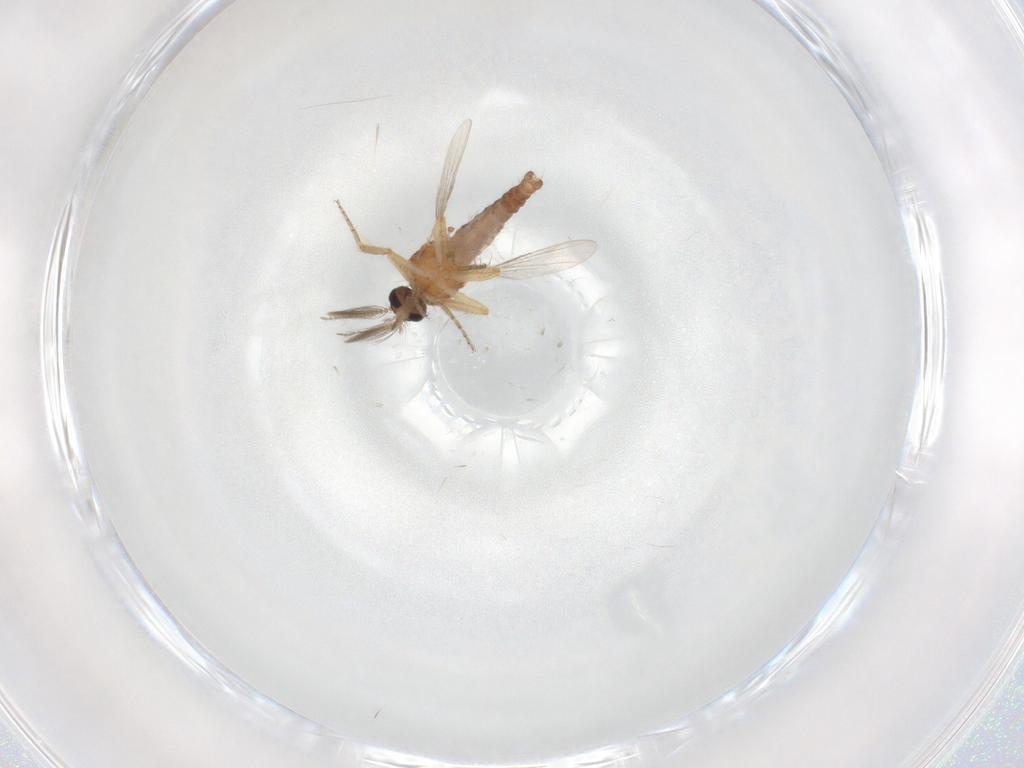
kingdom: Animalia
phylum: Arthropoda
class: Insecta
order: Diptera
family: Ceratopogonidae
